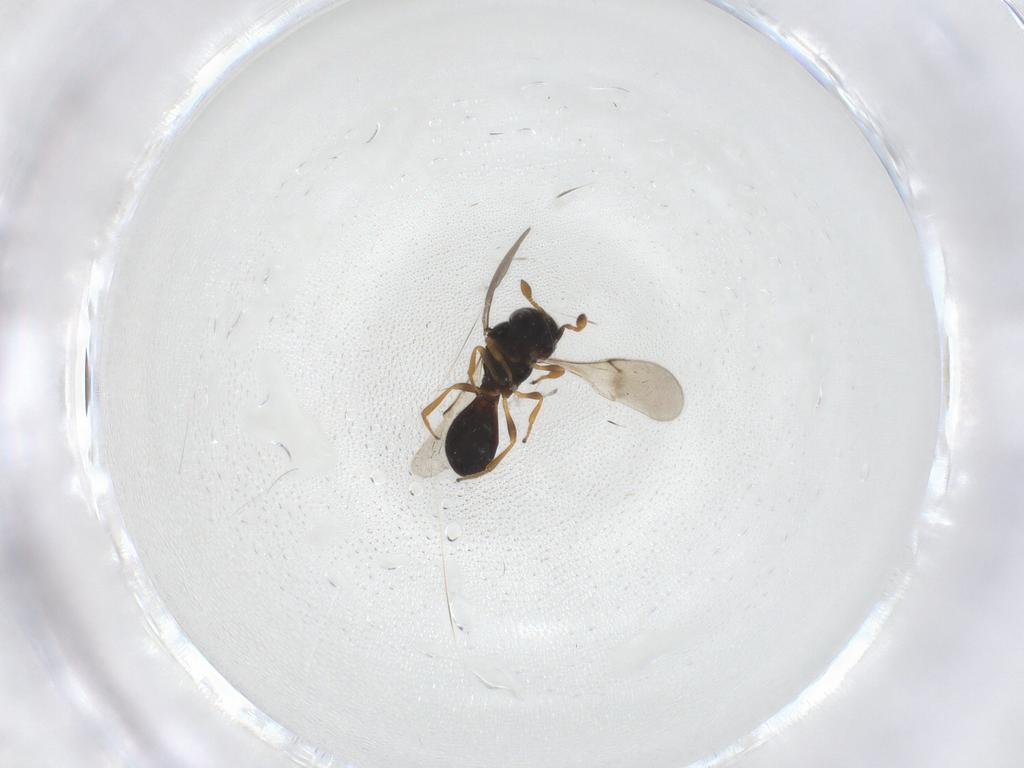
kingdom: Animalia
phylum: Arthropoda
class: Insecta
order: Hymenoptera
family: Scelionidae
